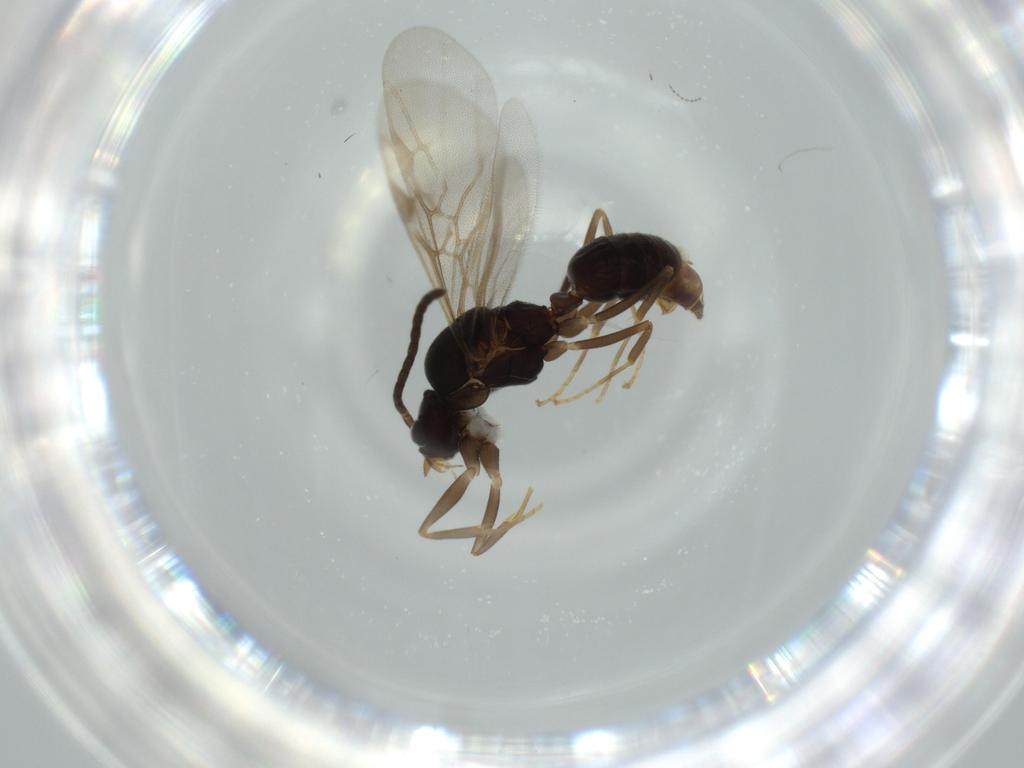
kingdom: Animalia
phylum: Arthropoda
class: Insecta
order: Hymenoptera
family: Formicidae
